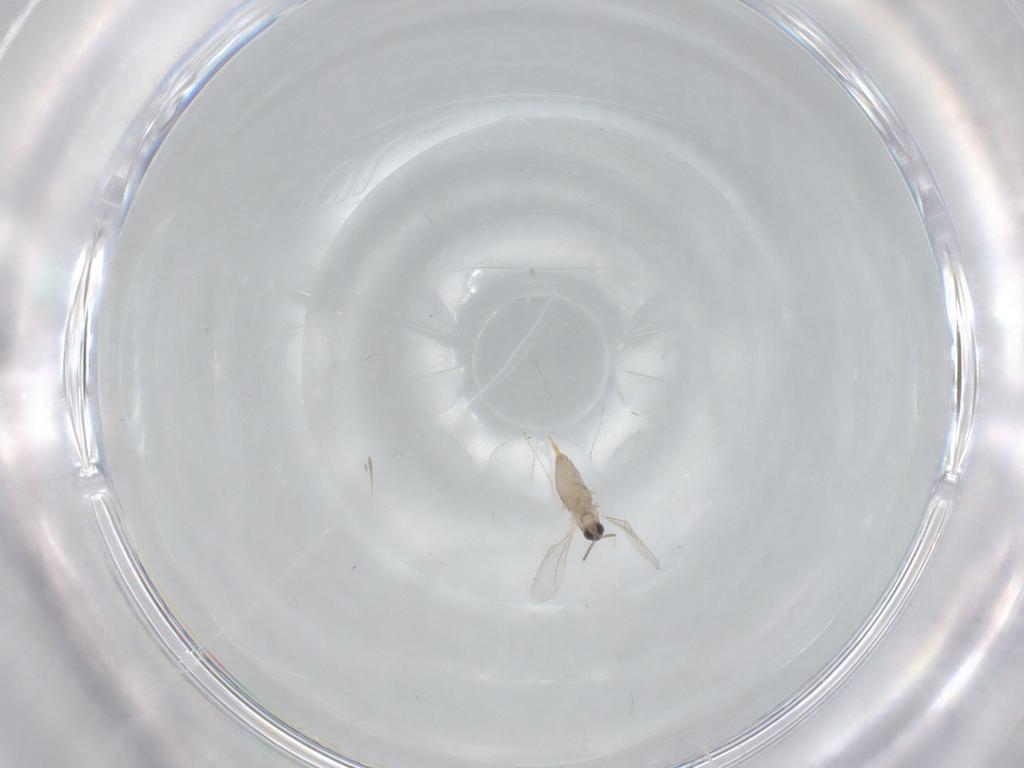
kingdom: Animalia
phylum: Arthropoda
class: Insecta
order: Diptera
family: Cecidomyiidae
